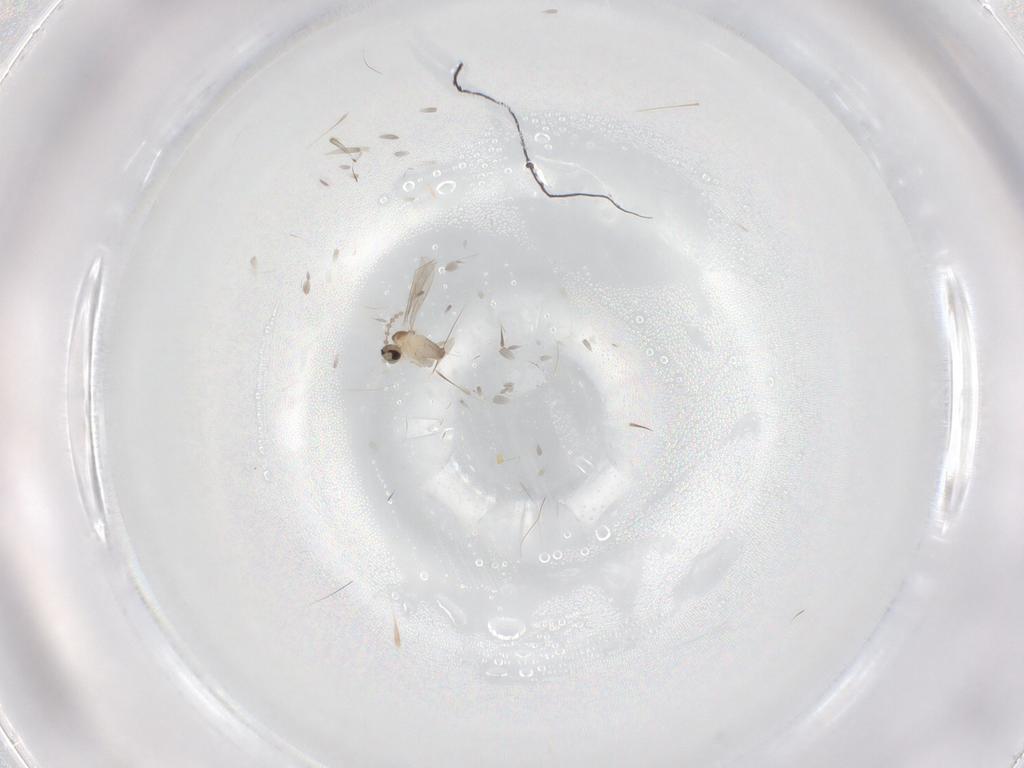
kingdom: Animalia
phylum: Arthropoda
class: Insecta
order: Diptera
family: Cecidomyiidae
